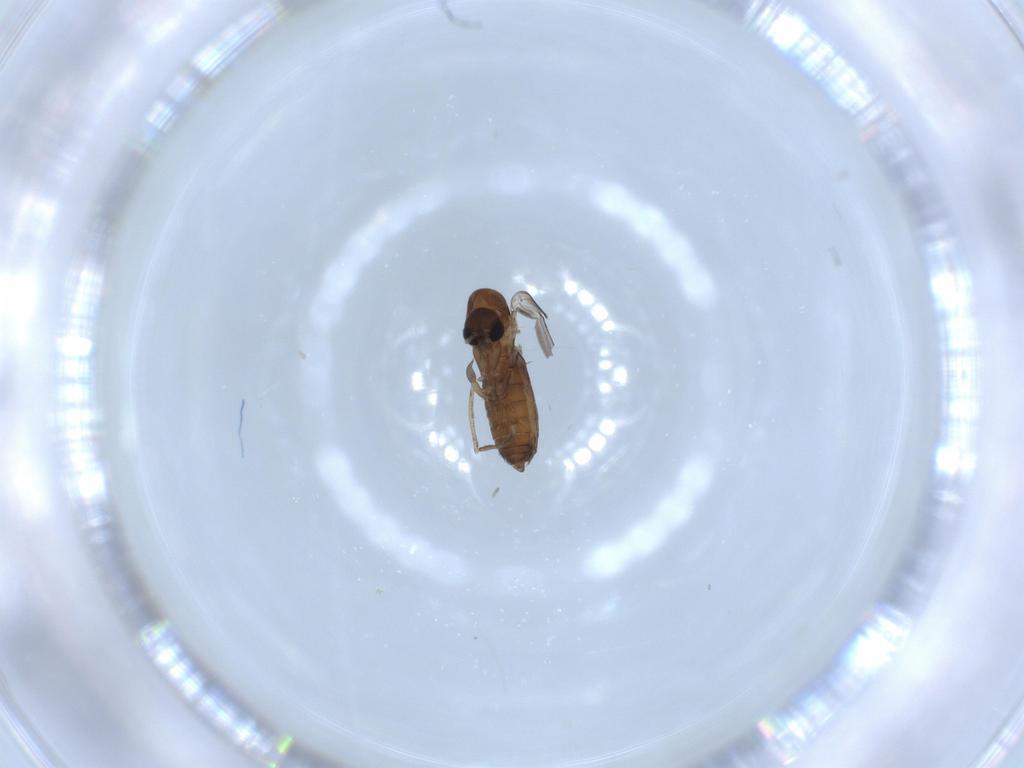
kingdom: Animalia
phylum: Arthropoda
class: Insecta
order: Diptera
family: Psychodidae
